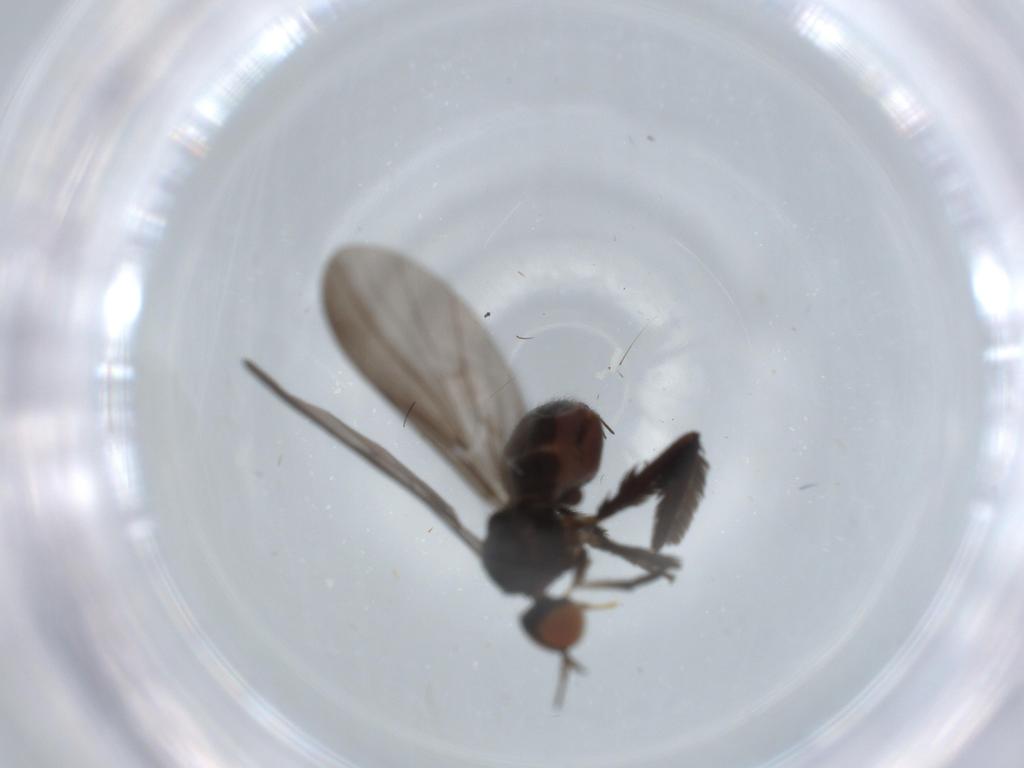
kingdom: Animalia
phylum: Arthropoda
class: Insecta
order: Diptera
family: Empididae
